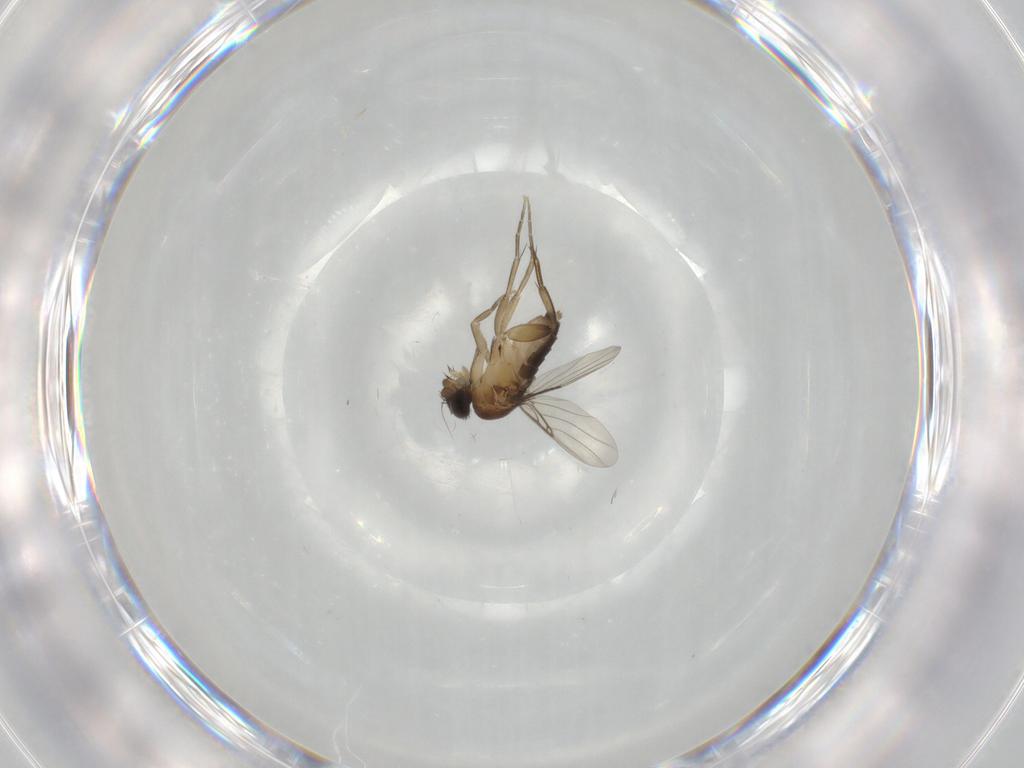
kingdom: Animalia
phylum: Arthropoda
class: Insecta
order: Diptera
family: Phoridae
